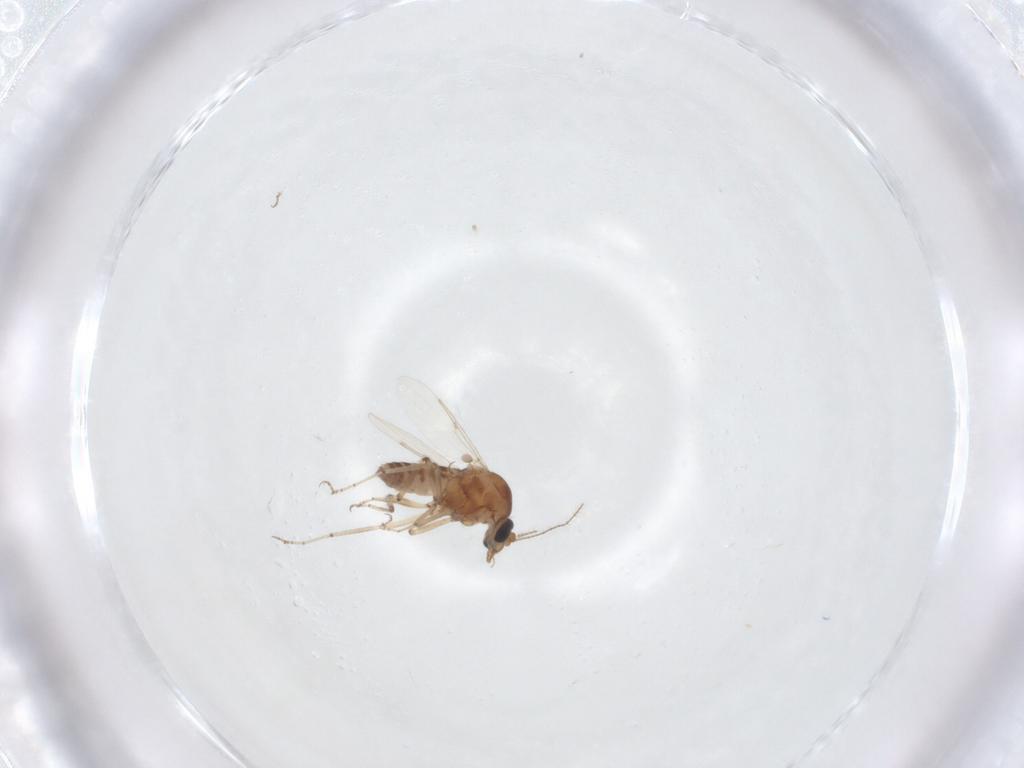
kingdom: Animalia
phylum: Arthropoda
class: Insecta
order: Diptera
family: Ceratopogonidae
